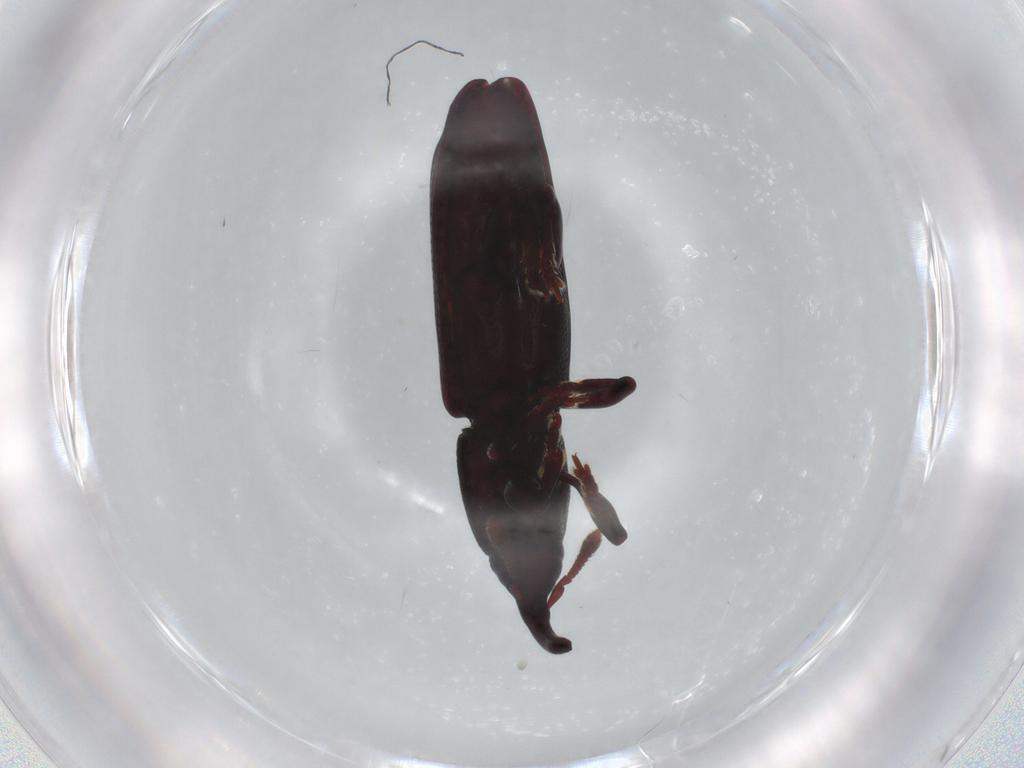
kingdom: Animalia
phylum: Arthropoda
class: Insecta
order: Coleoptera
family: Curculionidae
